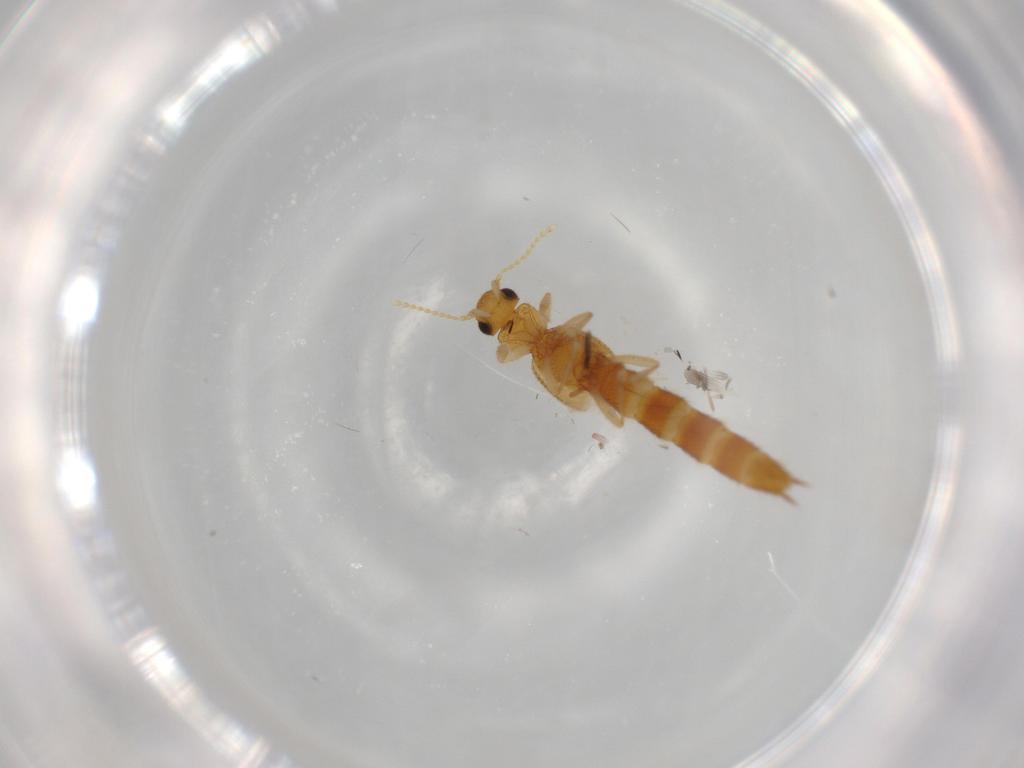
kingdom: Animalia
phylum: Arthropoda
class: Insecta
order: Coleoptera
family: Staphylinidae
